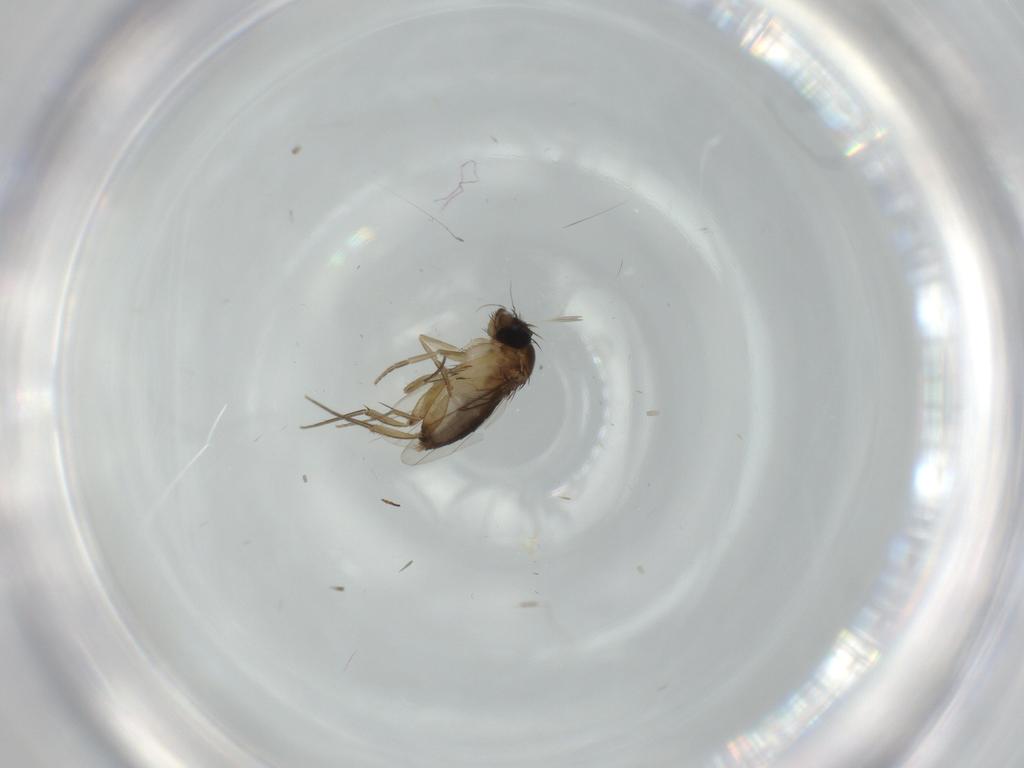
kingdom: Animalia
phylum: Arthropoda
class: Insecta
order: Diptera
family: Phoridae
